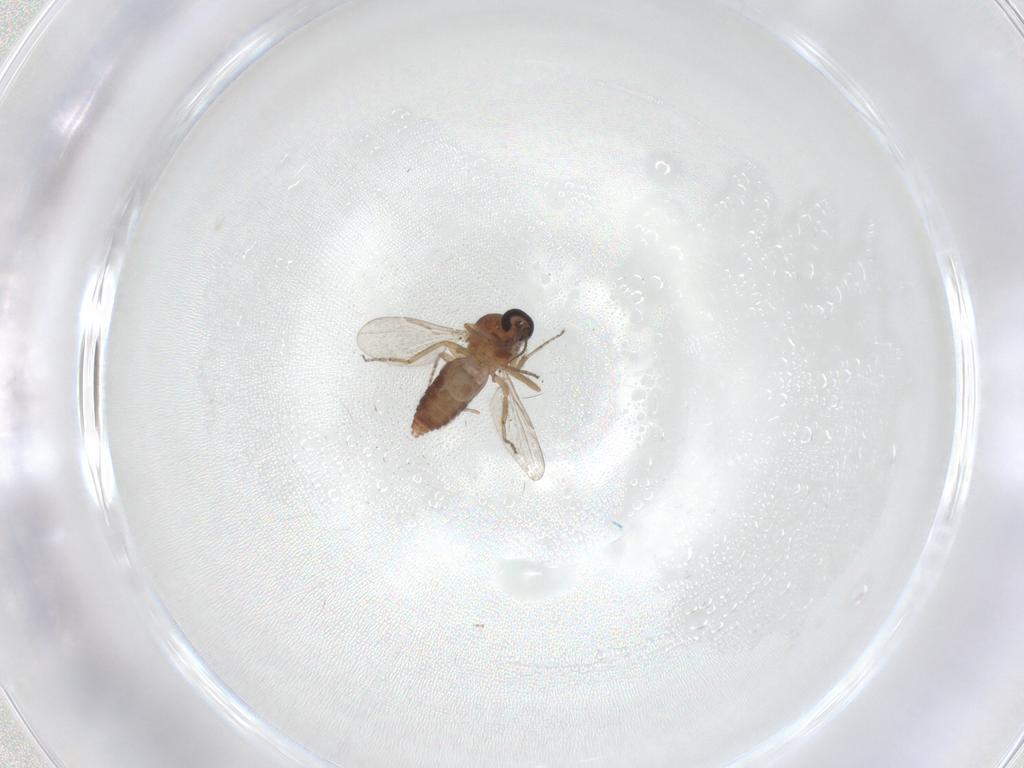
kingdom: Animalia
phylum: Arthropoda
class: Insecta
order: Diptera
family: Ceratopogonidae
